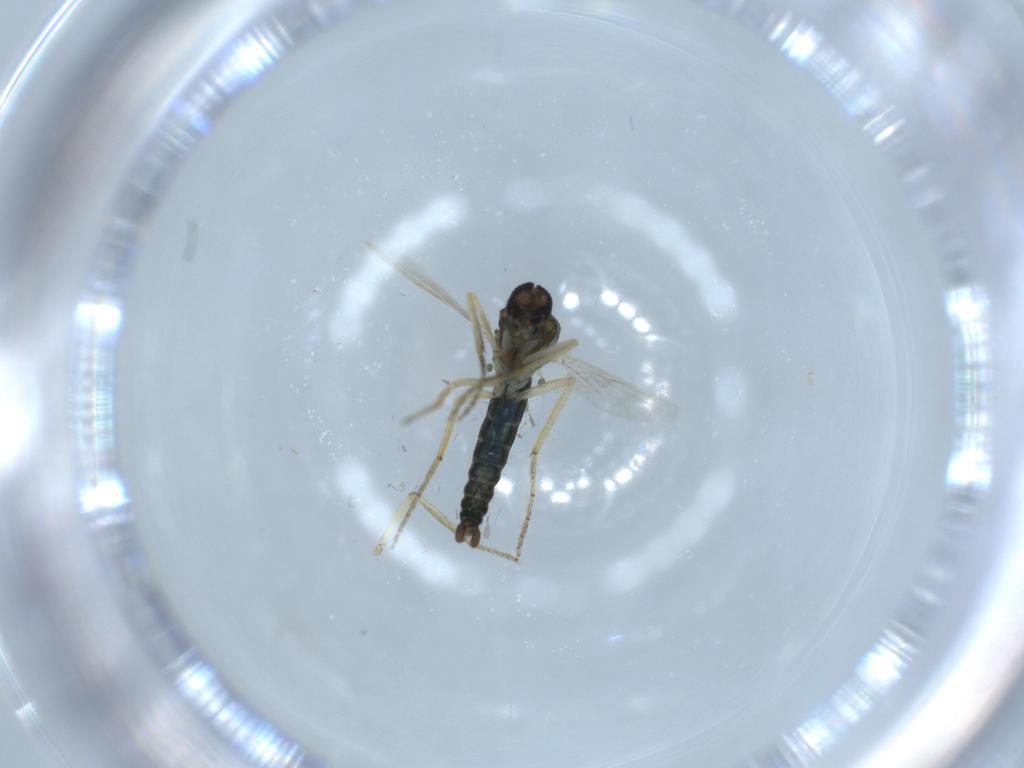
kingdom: Animalia
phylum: Arthropoda
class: Insecta
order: Diptera
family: Ceratopogonidae
